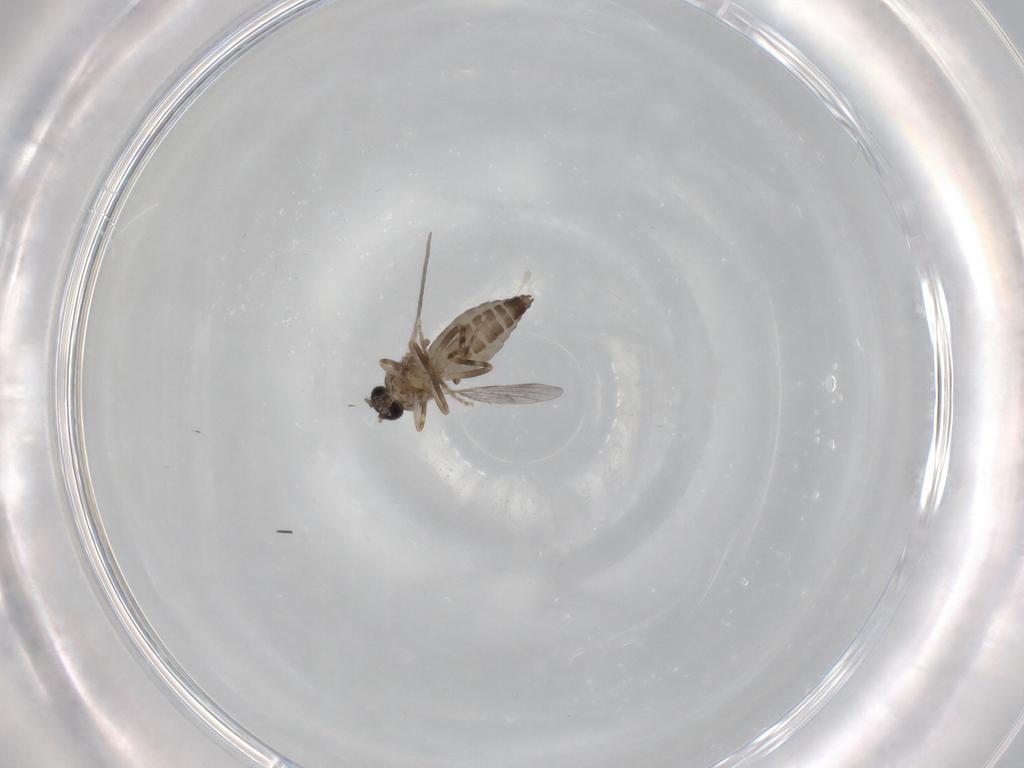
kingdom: Animalia
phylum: Arthropoda
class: Insecta
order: Diptera
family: Ceratopogonidae
